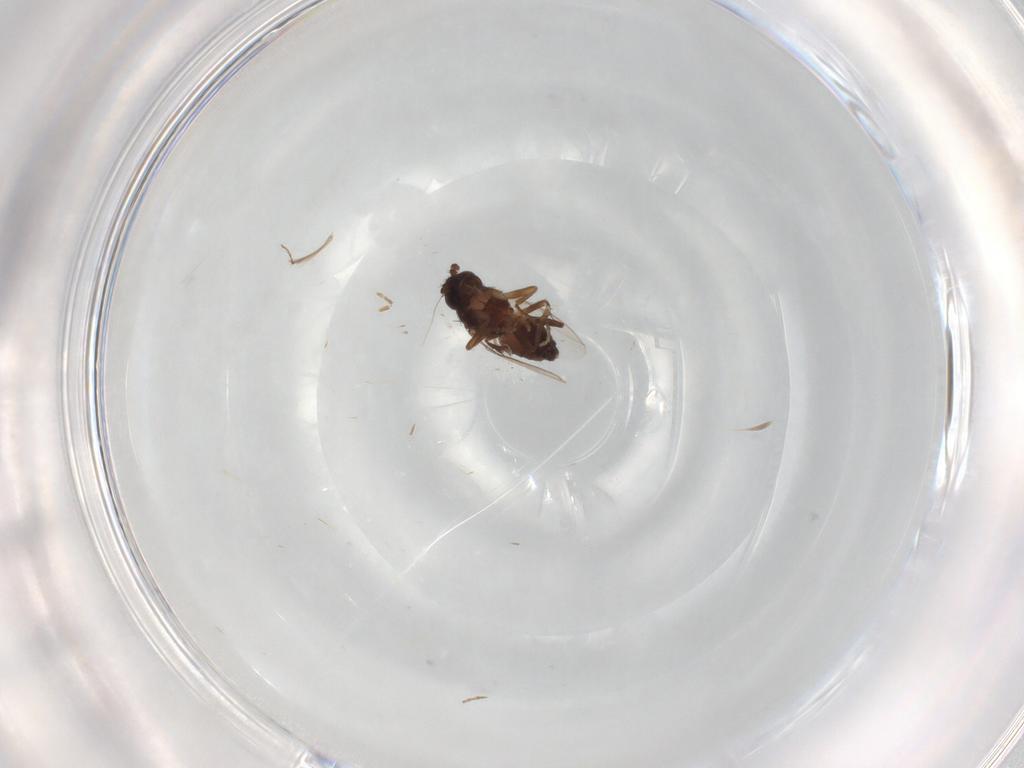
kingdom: Animalia
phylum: Arthropoda
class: Insecta
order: Diptera
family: Sphaeroceridae
